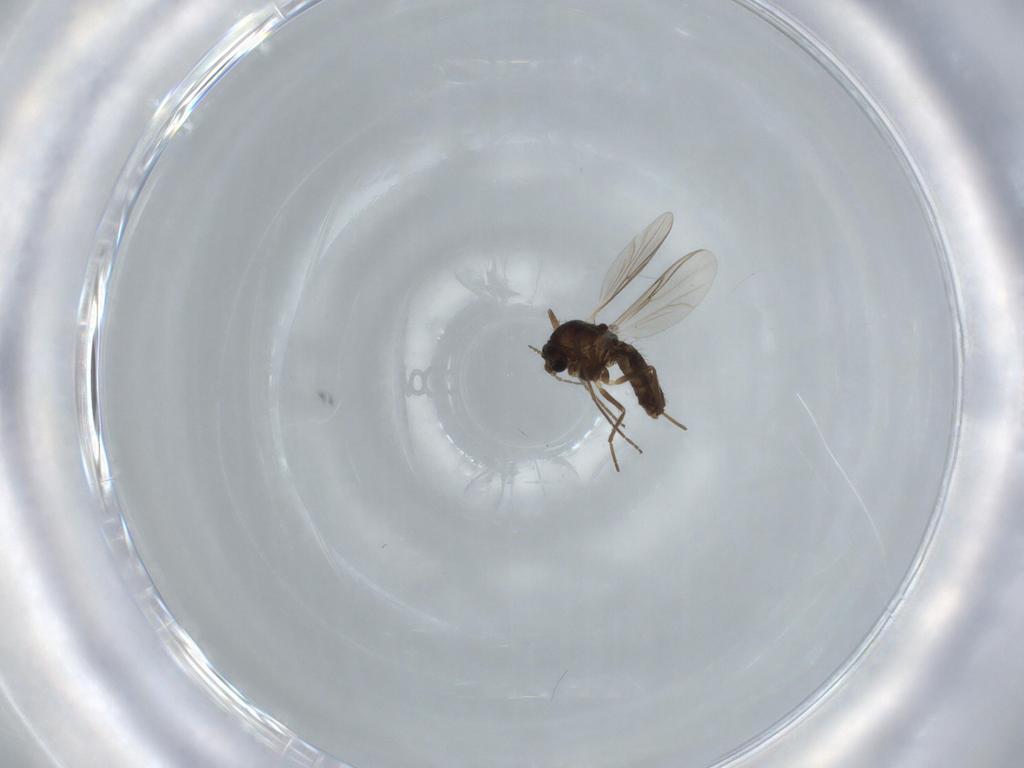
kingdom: Animalia
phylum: Arthropoda
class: Insecta
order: Diptera
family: Chironomidae
